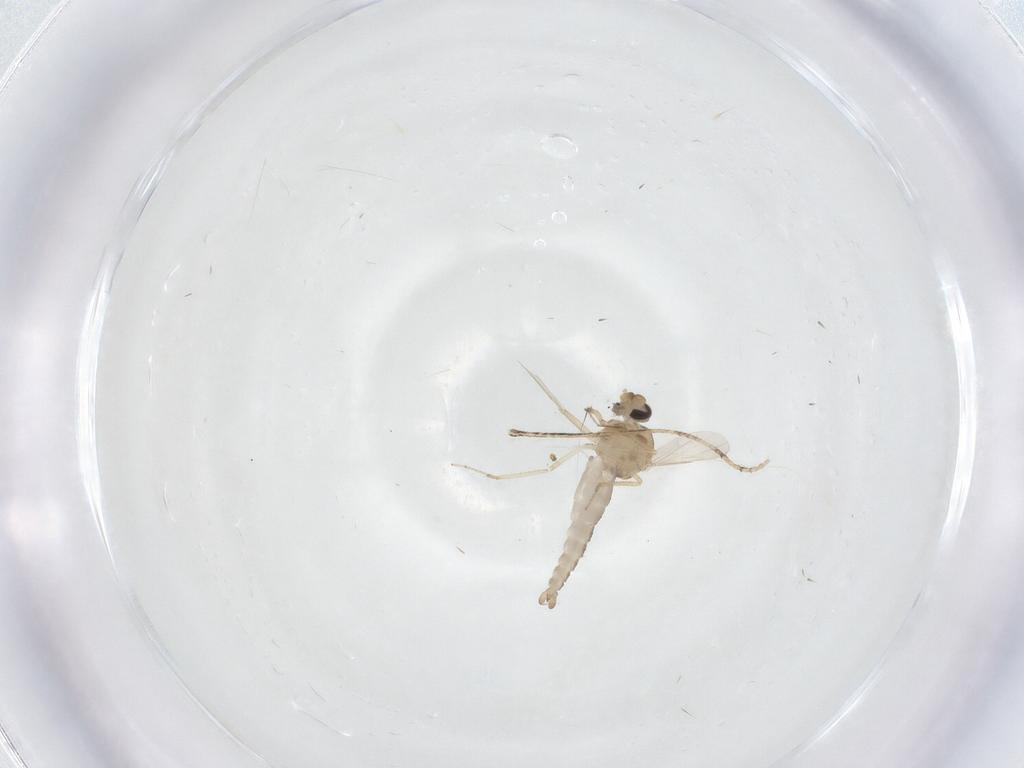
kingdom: Animalia
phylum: Arthropoda
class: Insecta
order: Diptera
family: Ceratopogonidae
